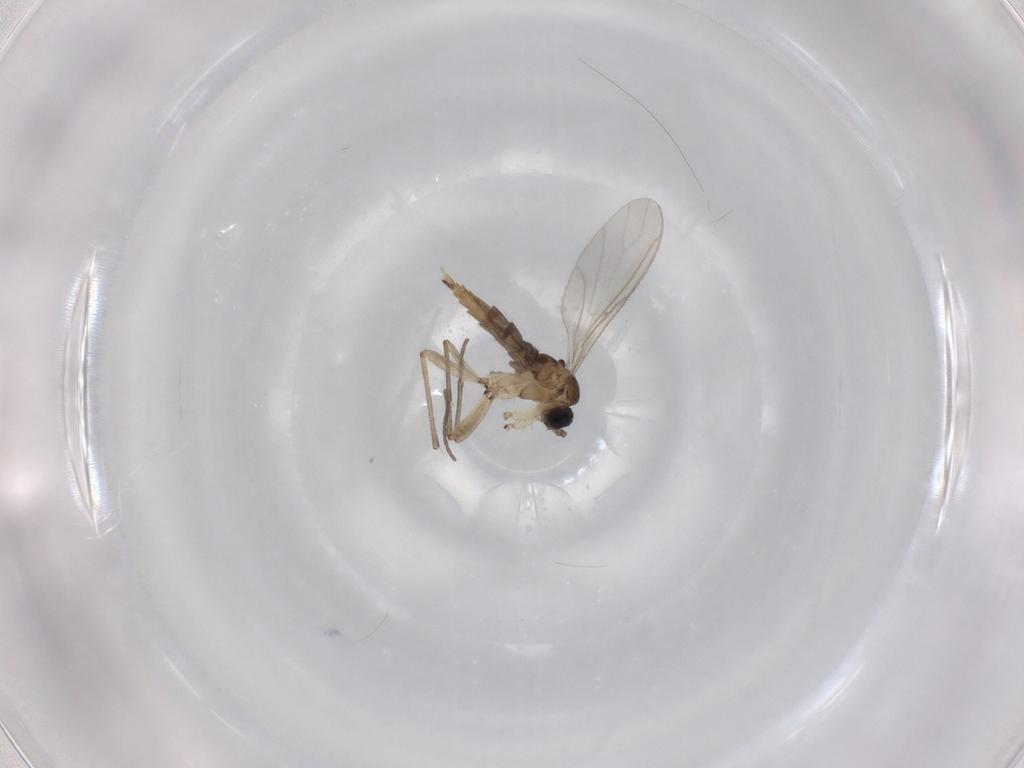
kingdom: Animalia
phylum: Arthropoda
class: Insecta
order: Diptera
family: Sciaridae
